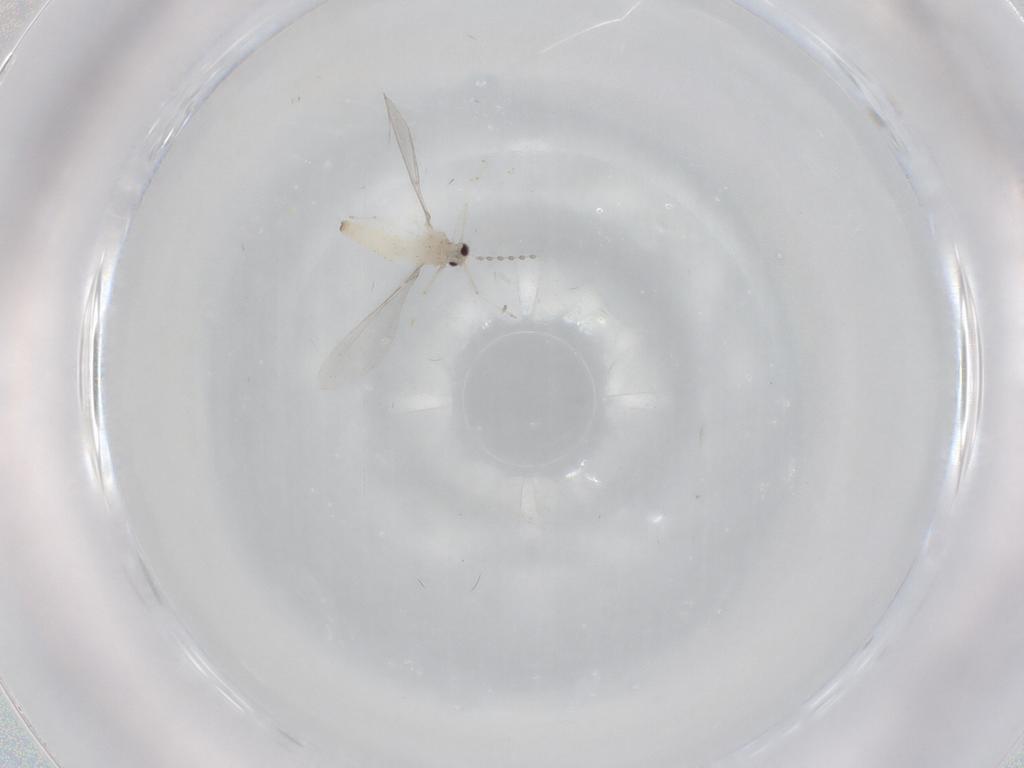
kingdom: Animalia
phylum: Arthropoda
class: Insecta
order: Diptera
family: Cecidomyiidae
